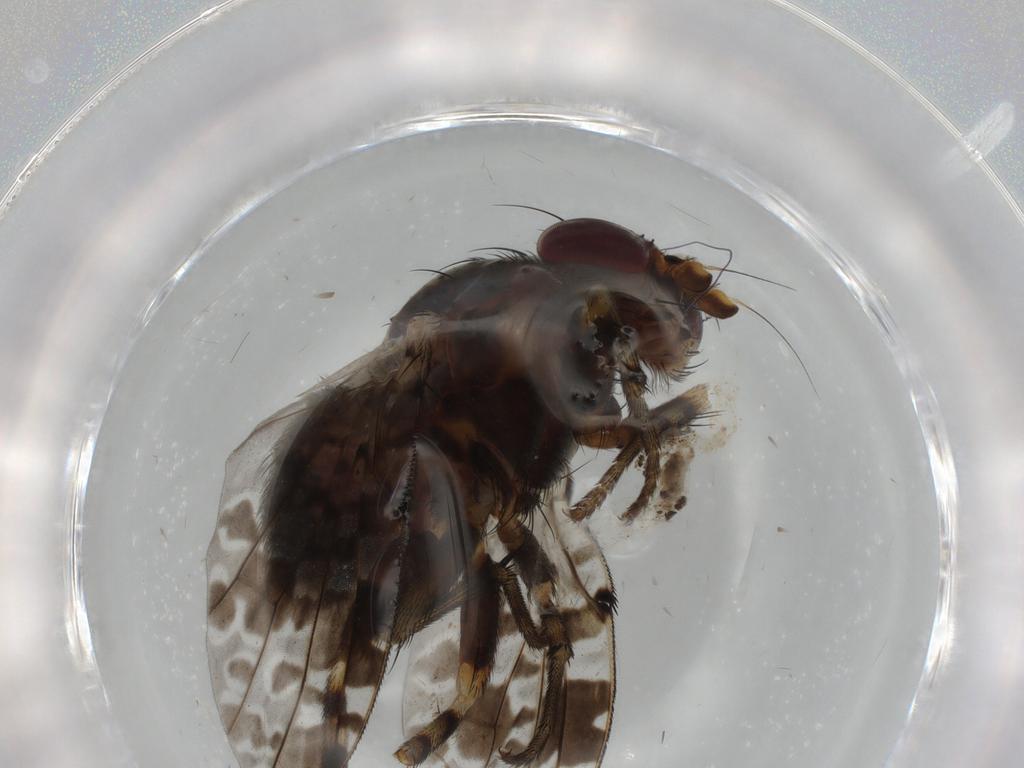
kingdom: Animalia
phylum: Arthropoda
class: Insecta
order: Diptera
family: Odiniidae
